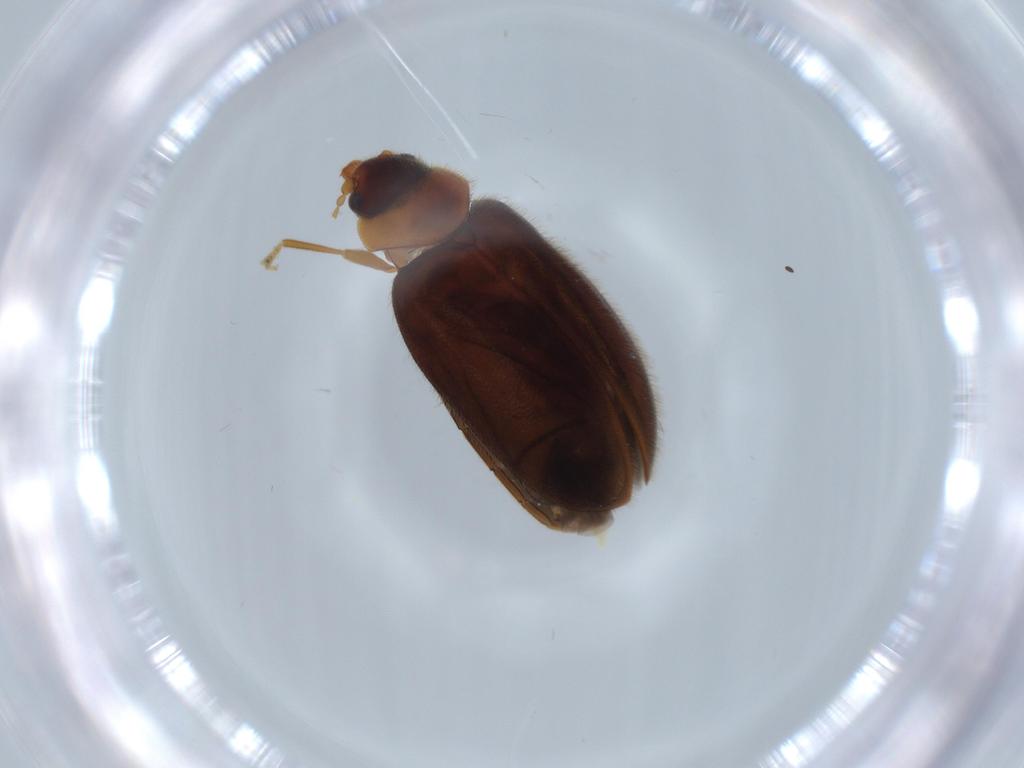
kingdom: Animalia
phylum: Arthropoda
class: Insecta
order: Coleoptera
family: Scirtidae
